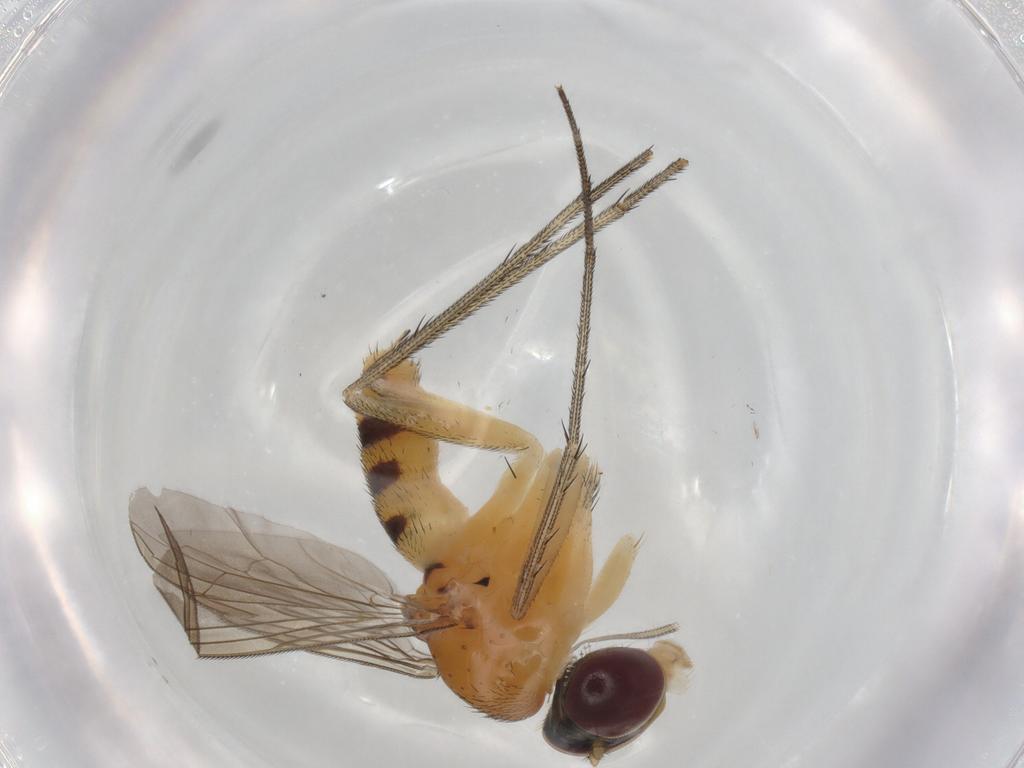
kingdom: Animalia
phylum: Arthropoda
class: Insecta
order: Diptera
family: Dolichopodidae
